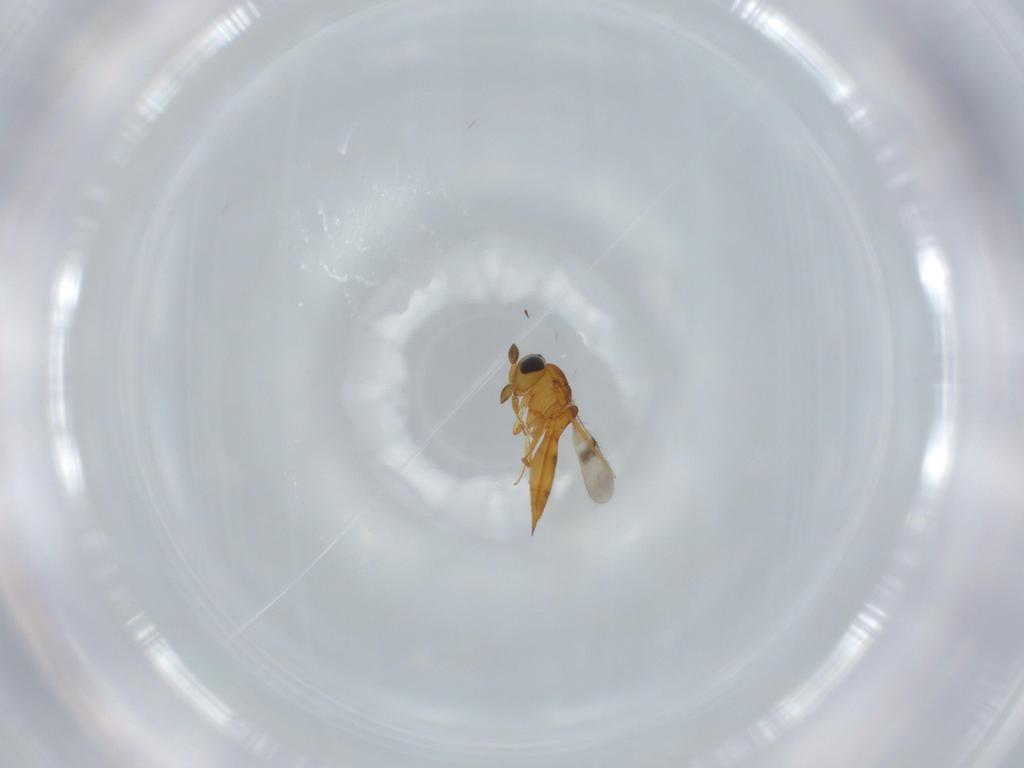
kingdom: Animalia
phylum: Arthropoda
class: Insecta
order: Hymenoptera
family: Scelionidae
